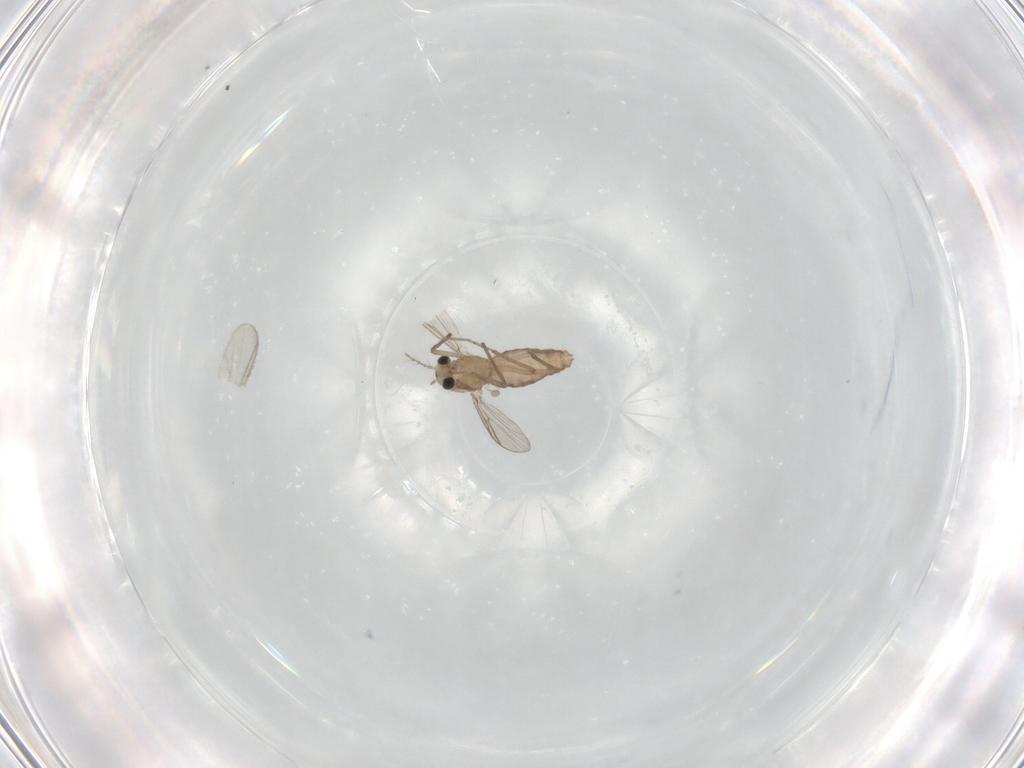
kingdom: Animalia
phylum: Arthropoda
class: Insecta
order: Diptera
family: Chironomidae
